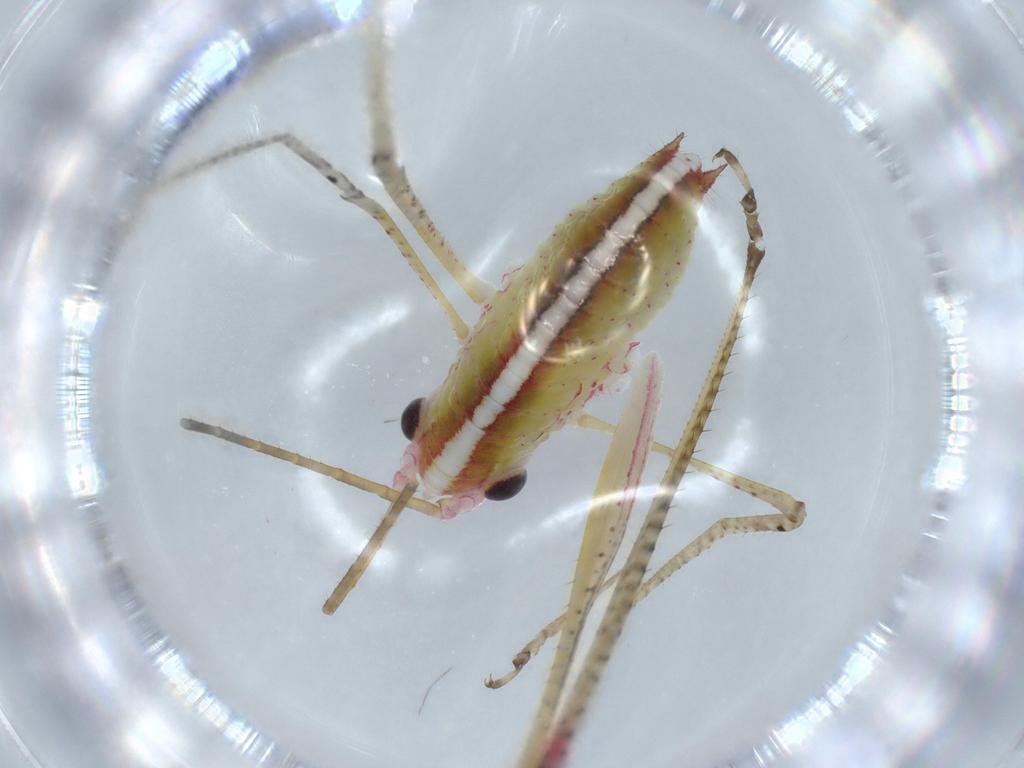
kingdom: Animalia
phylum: Arthropoda
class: Insecta
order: Orthoptera
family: Tettigoniidae
